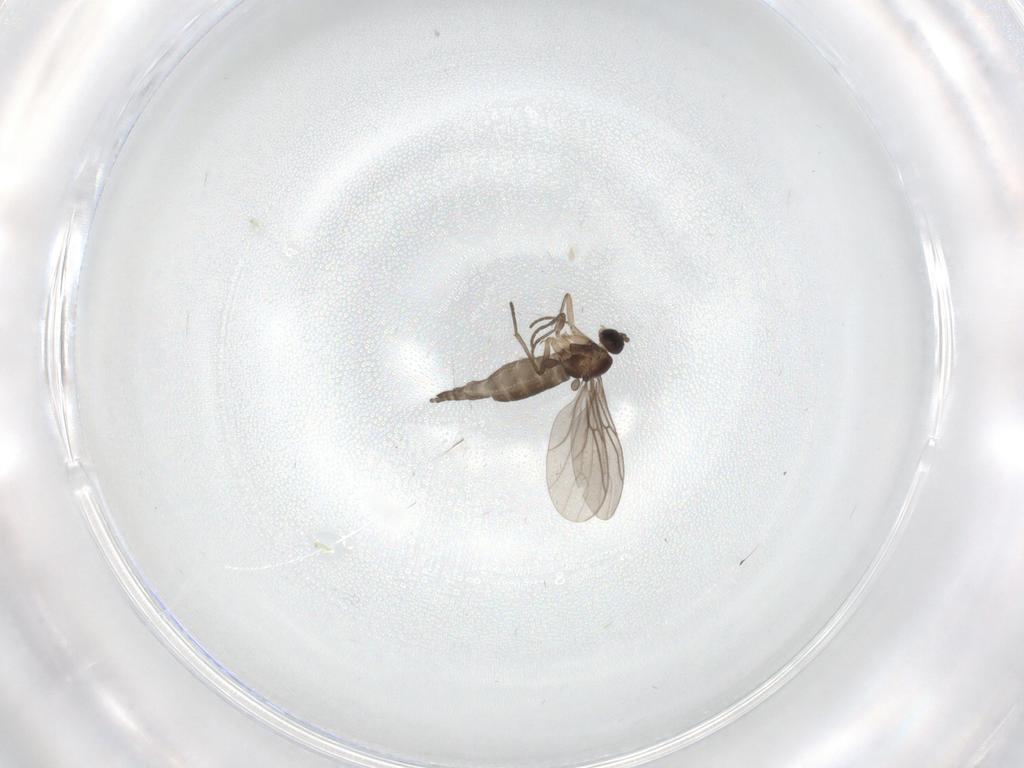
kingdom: Animalia
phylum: Arthropoda
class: Insecta
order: Diptera
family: Sciaridae
